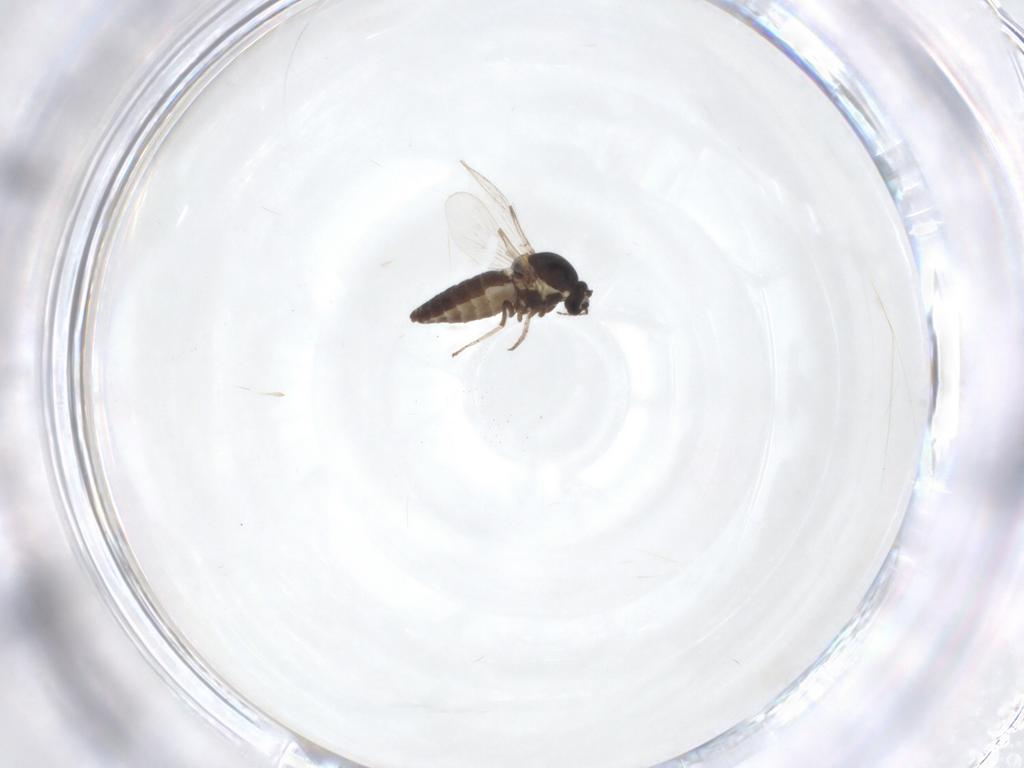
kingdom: Animalia
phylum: Arthropoda
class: Insecta
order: Diptera
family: Ceratopogonidae
